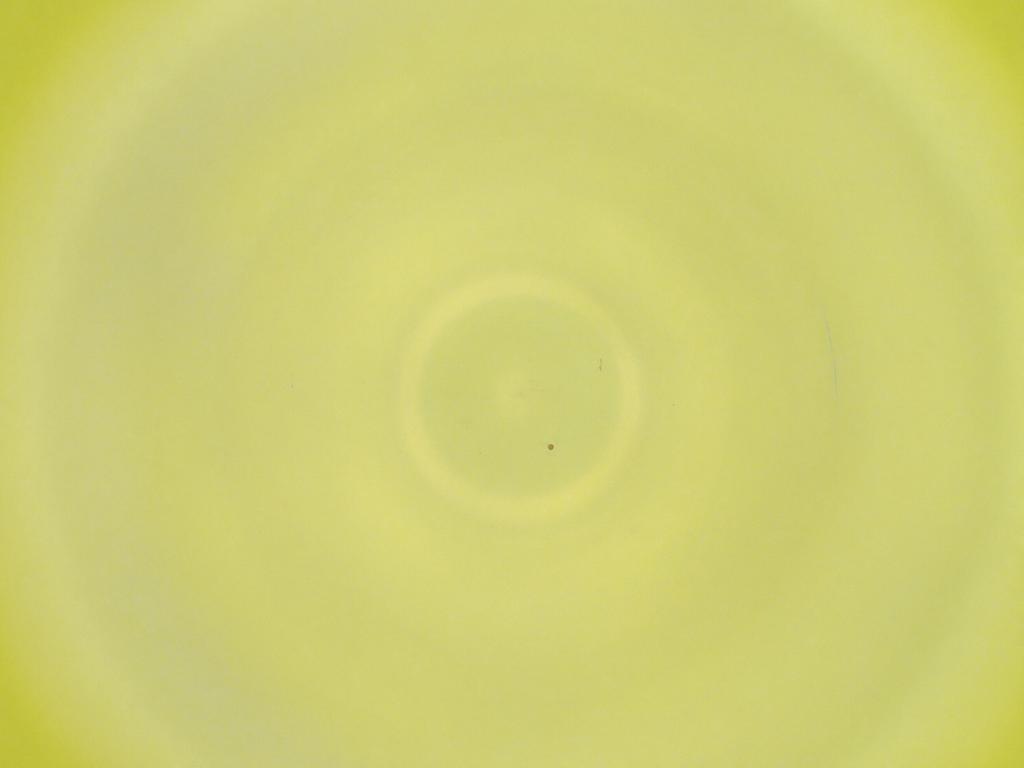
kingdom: Animalia
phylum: Arthropoda
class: Insecta
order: Diptera
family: Cecidomyiidae
